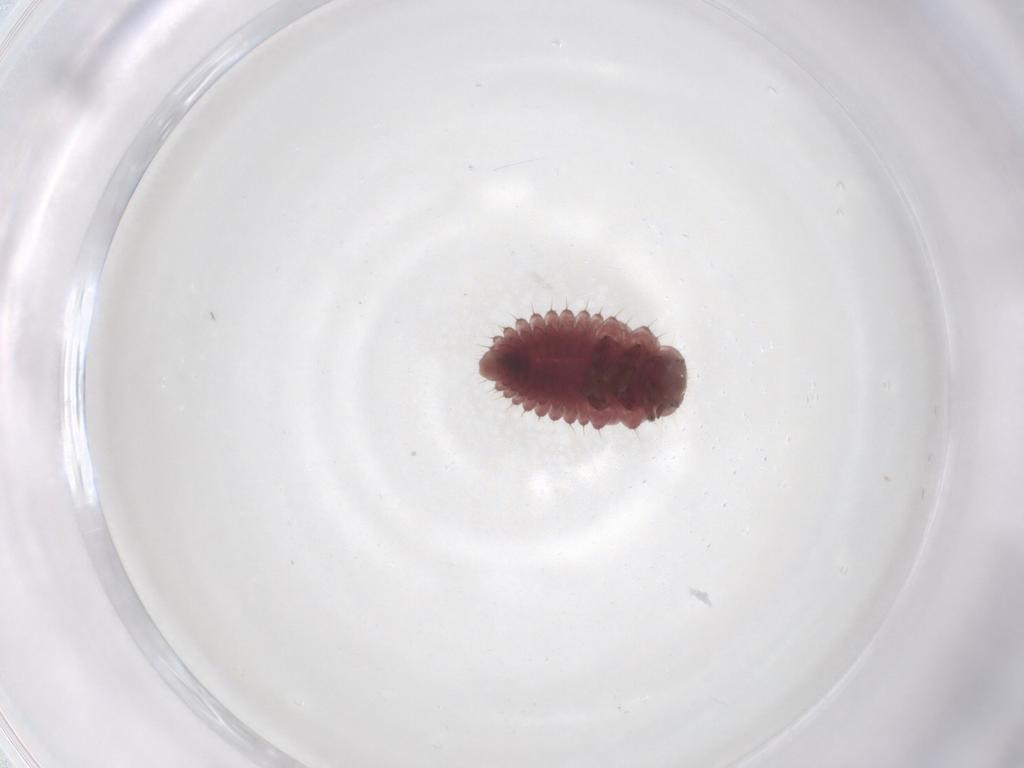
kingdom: Animalia
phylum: Arthropoda
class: Insecta
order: Coleoptera
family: Coccinellidae
